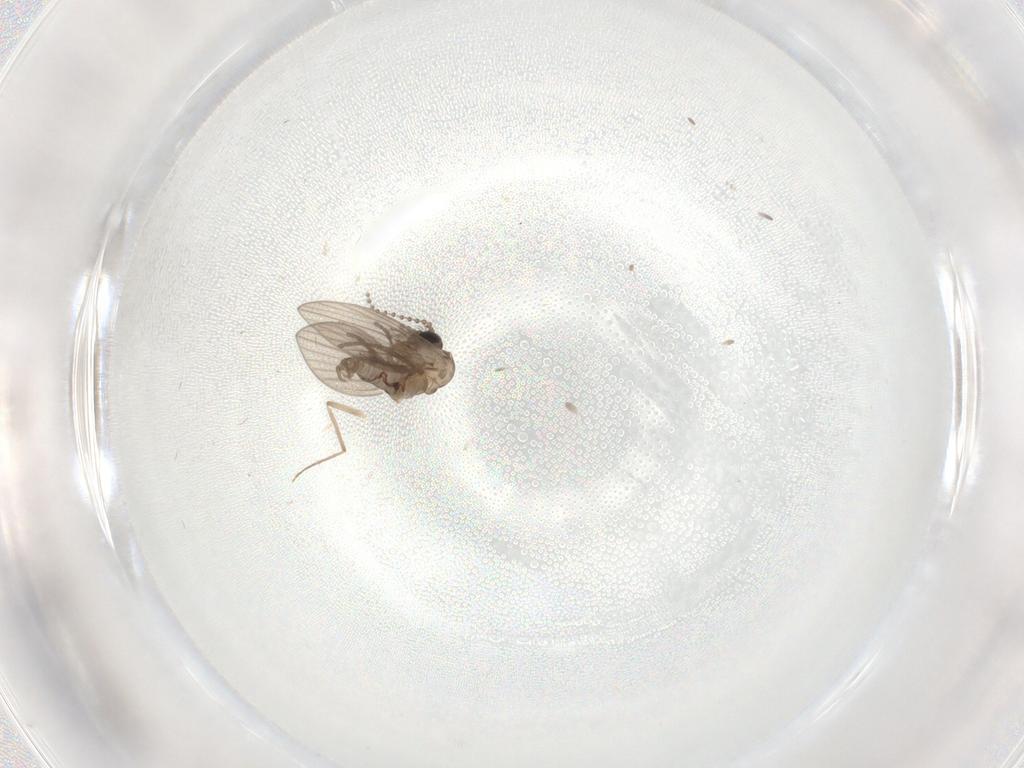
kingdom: Animalia
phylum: Arthropoda
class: Insecta
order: Diptera
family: Psychodidae
